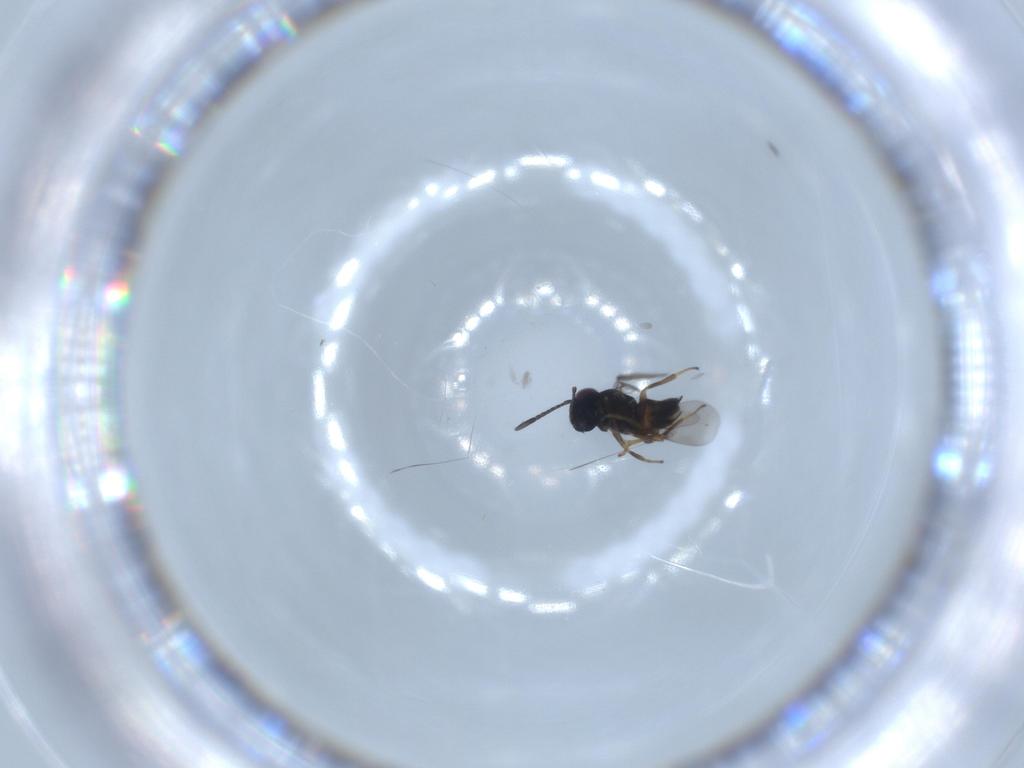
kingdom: Animalia
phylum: Arthropoda
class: Insecta
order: Hymenoptera
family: Encyrtidae
